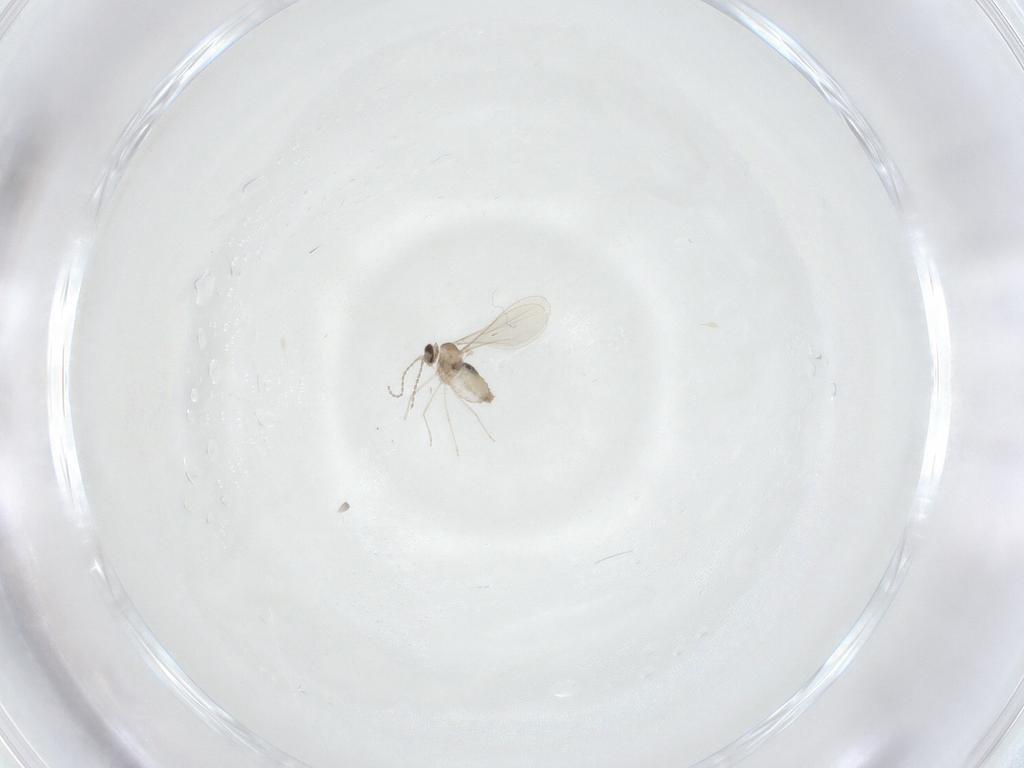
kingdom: Animalia
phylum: Arthropoda
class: Insecta
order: Diptera
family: Cecidomyiidae
